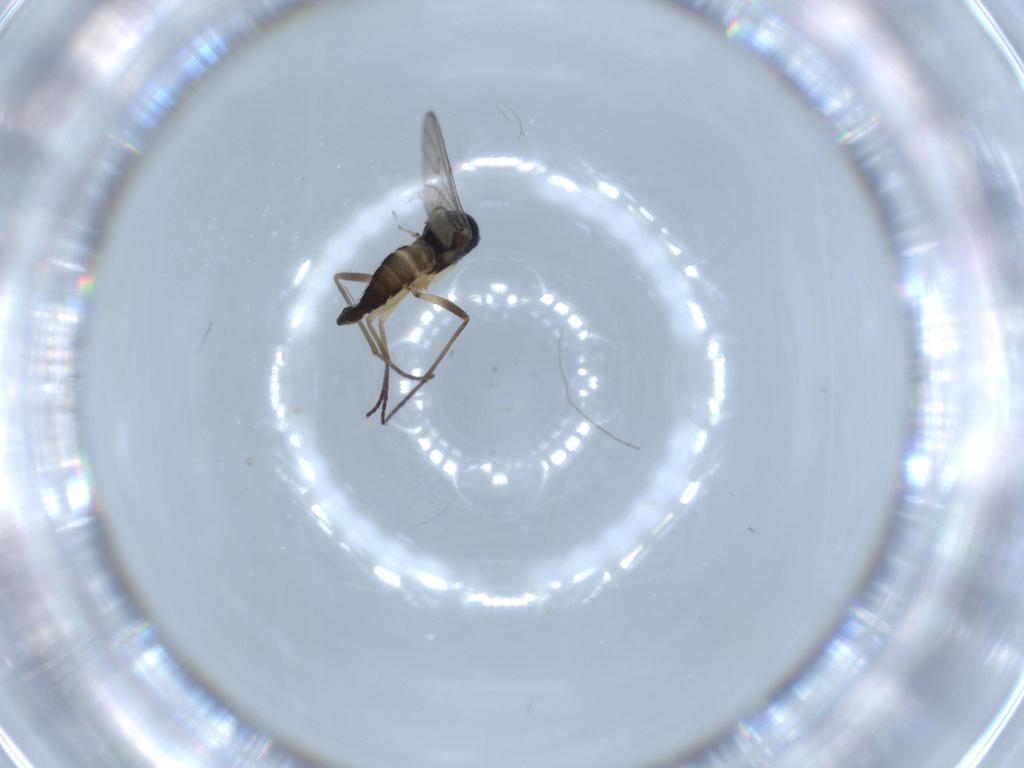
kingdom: Animalia
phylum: Arthropoda
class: Insecta
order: Diptera
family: Sciaridae
